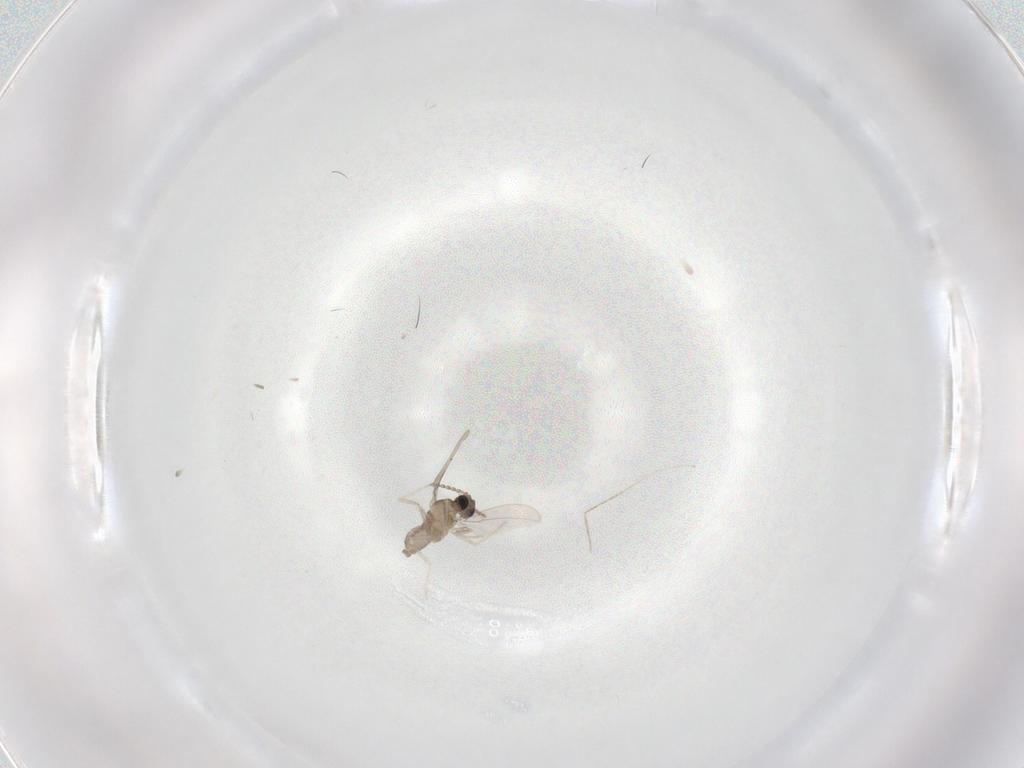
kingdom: Animalia
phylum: Arthropoda
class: Insecta
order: Diptera
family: Cecidomyiidae
